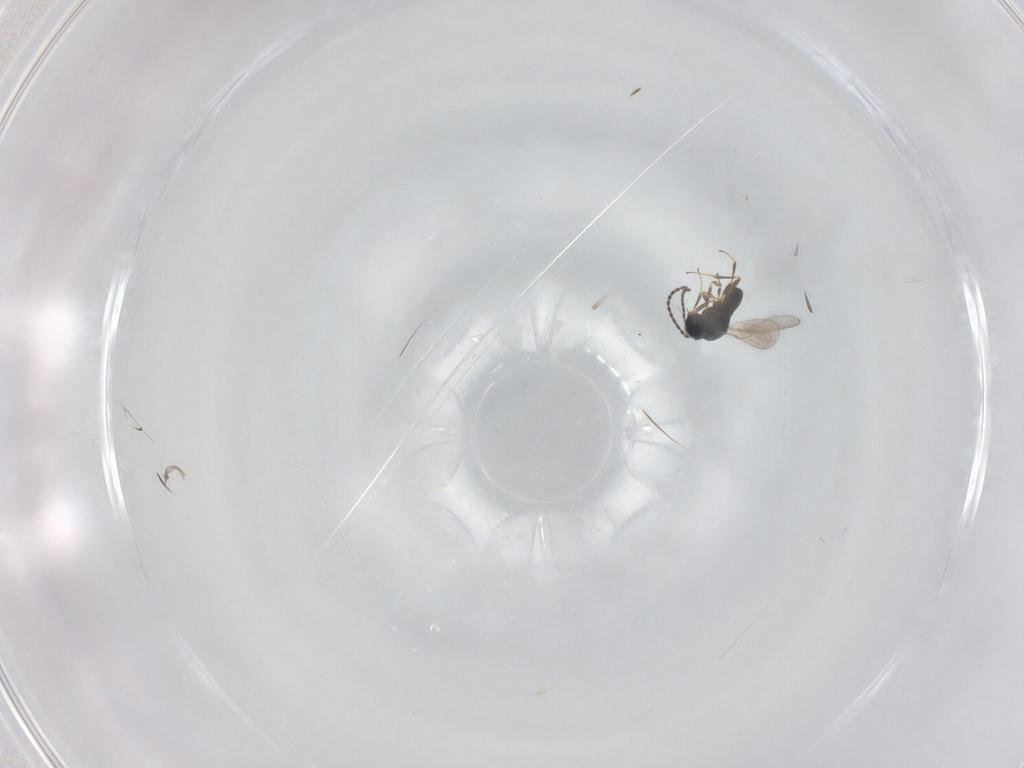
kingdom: Animalia
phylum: Arthropoda
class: Insecta
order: Hymenoptera
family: Scelionidae
